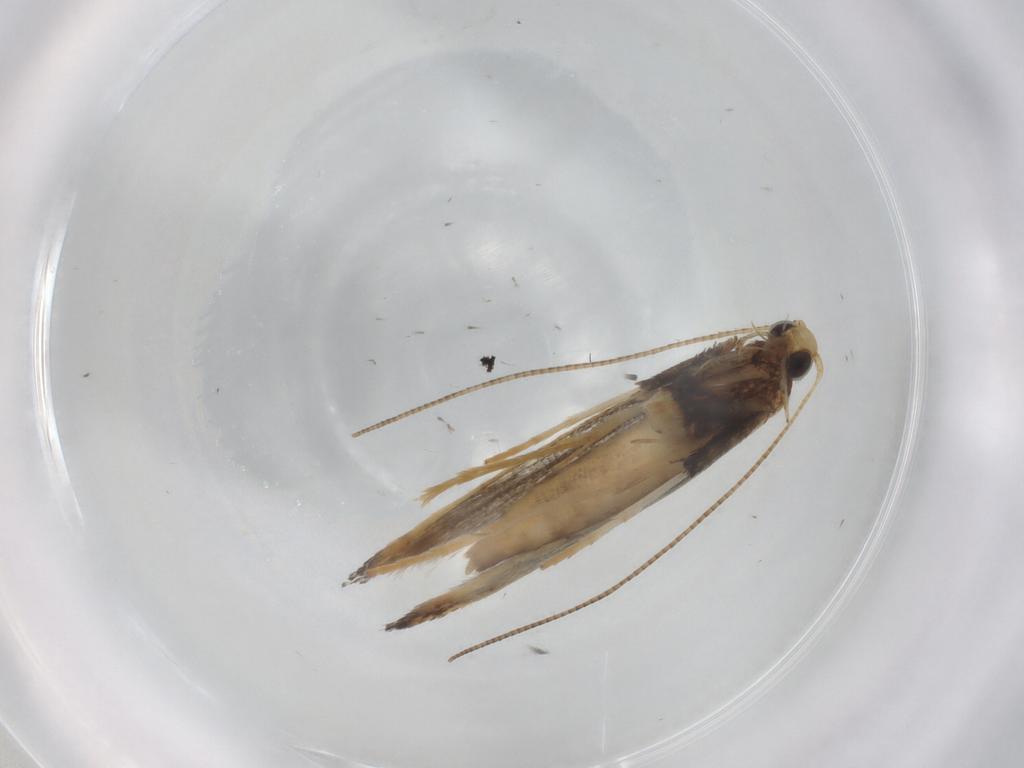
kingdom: Animalia
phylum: Arthropoda
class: Insecta
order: Lepidoptera
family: Gracillariidae
